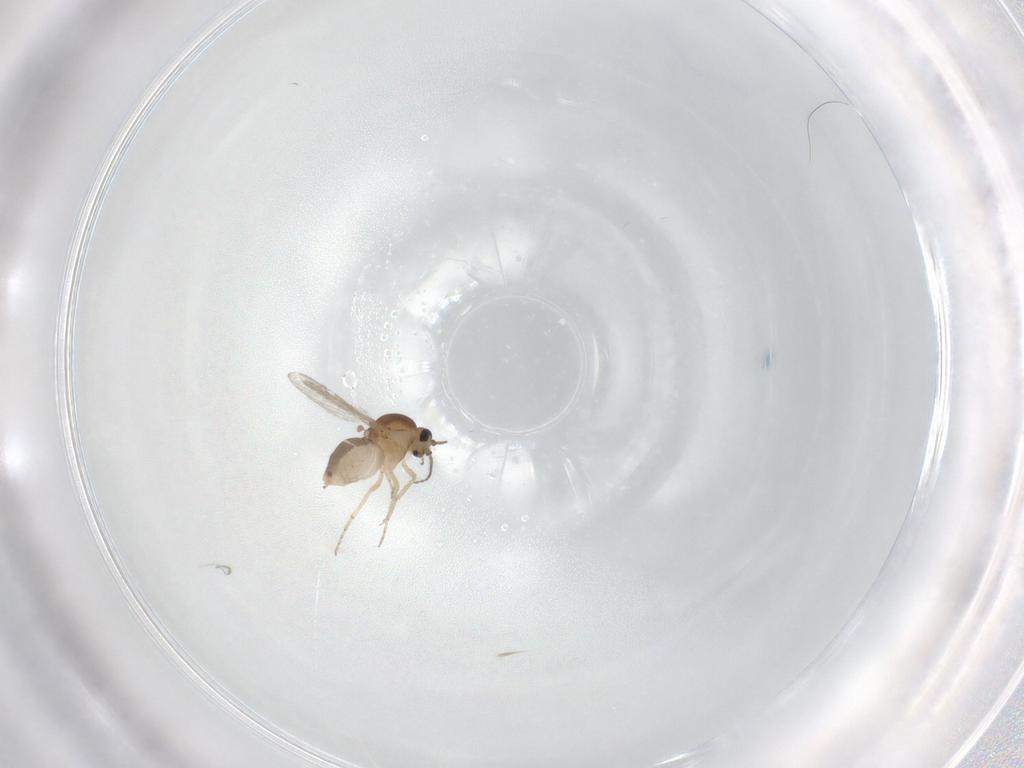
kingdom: Animalia
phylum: Arthropoda
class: Insecta
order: Diptera
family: Ceratopogonidae
